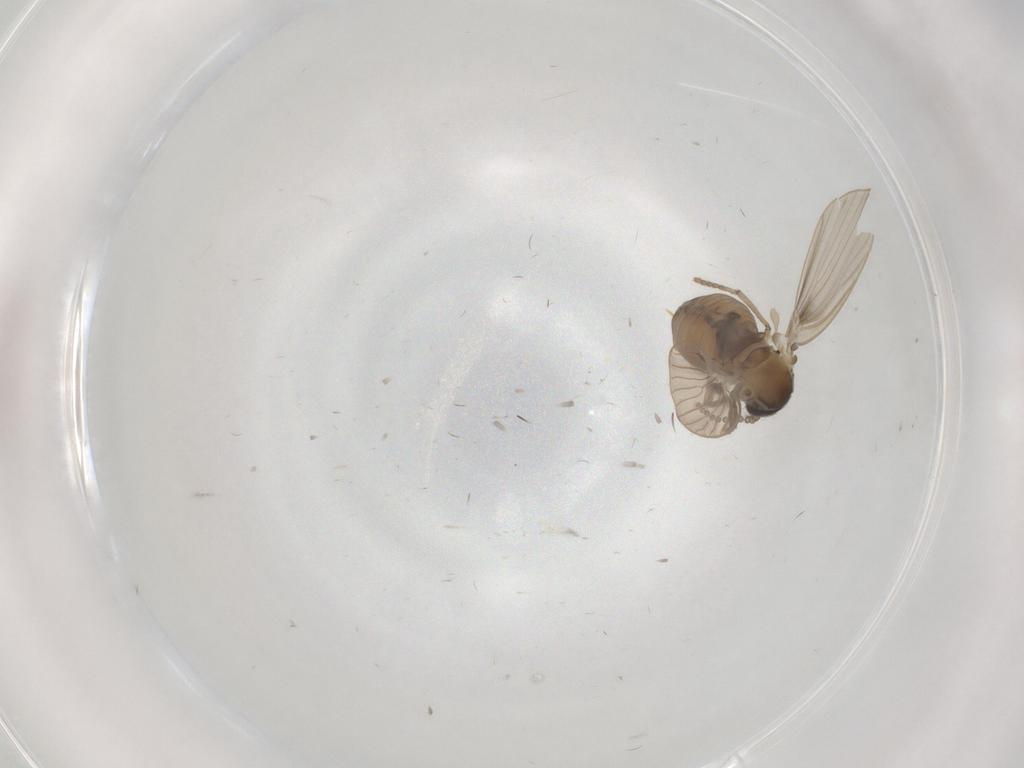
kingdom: Animalia
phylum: Arthropoda
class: Insecta
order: Diptera
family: Psychodidae
